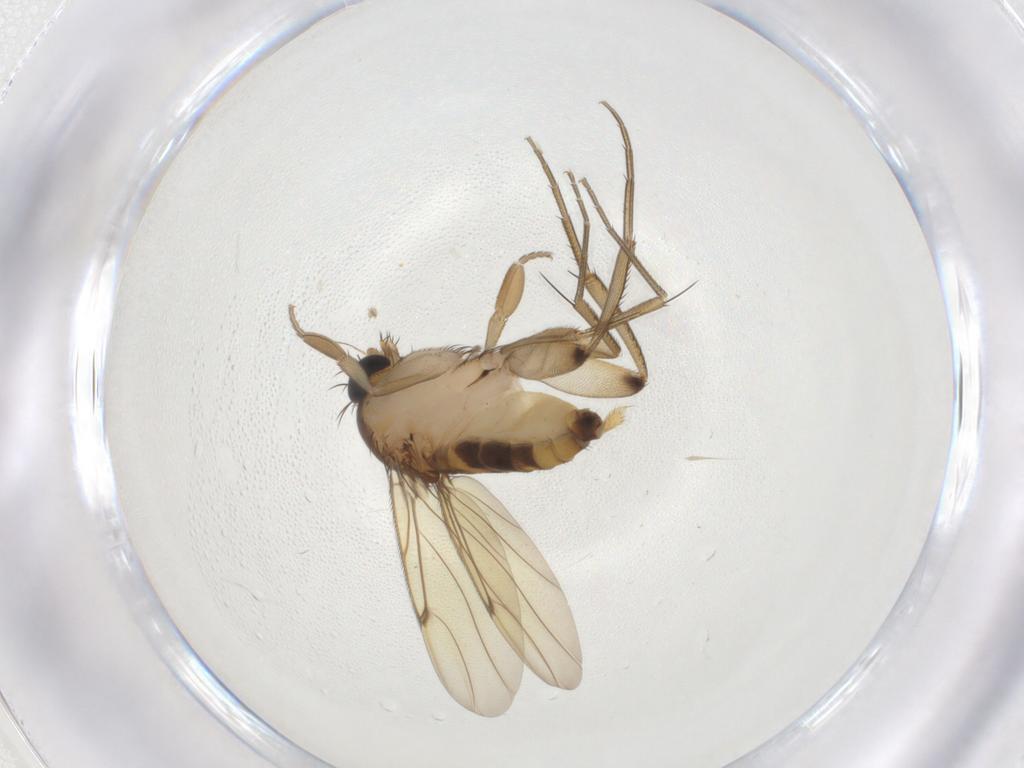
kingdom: Animalia
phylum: Arthropoda
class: Insecta
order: Diptera
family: Phoridae
